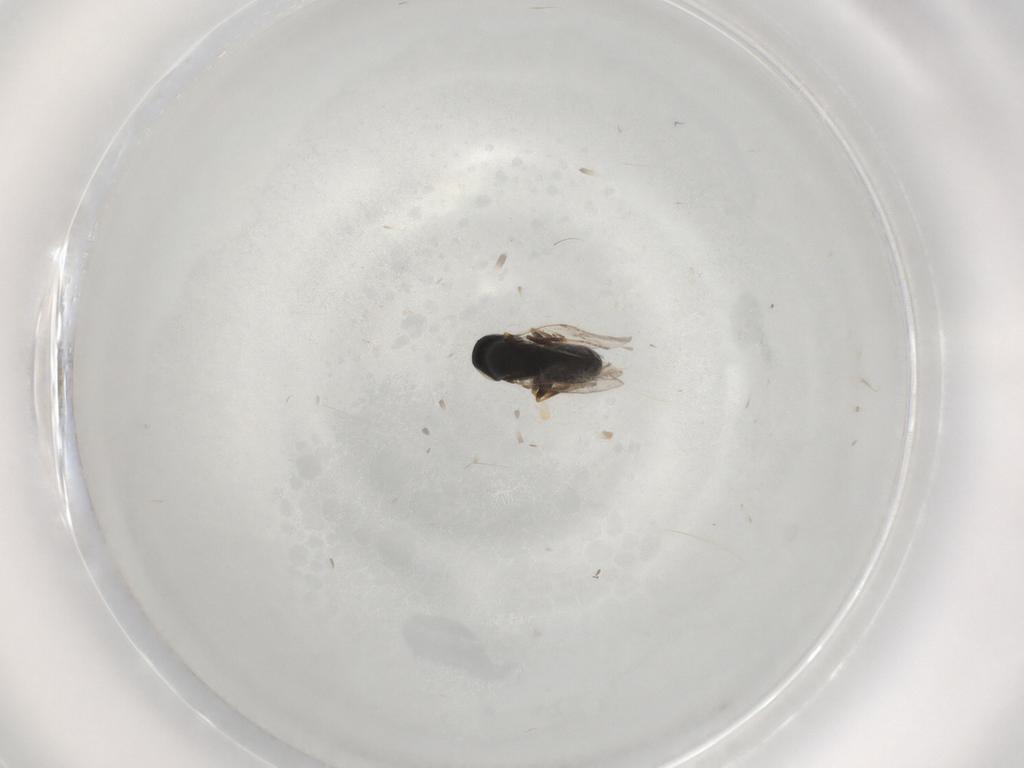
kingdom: Animalia
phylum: Arthropoda
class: Insecta
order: Hymenoptera
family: Scelionidae
